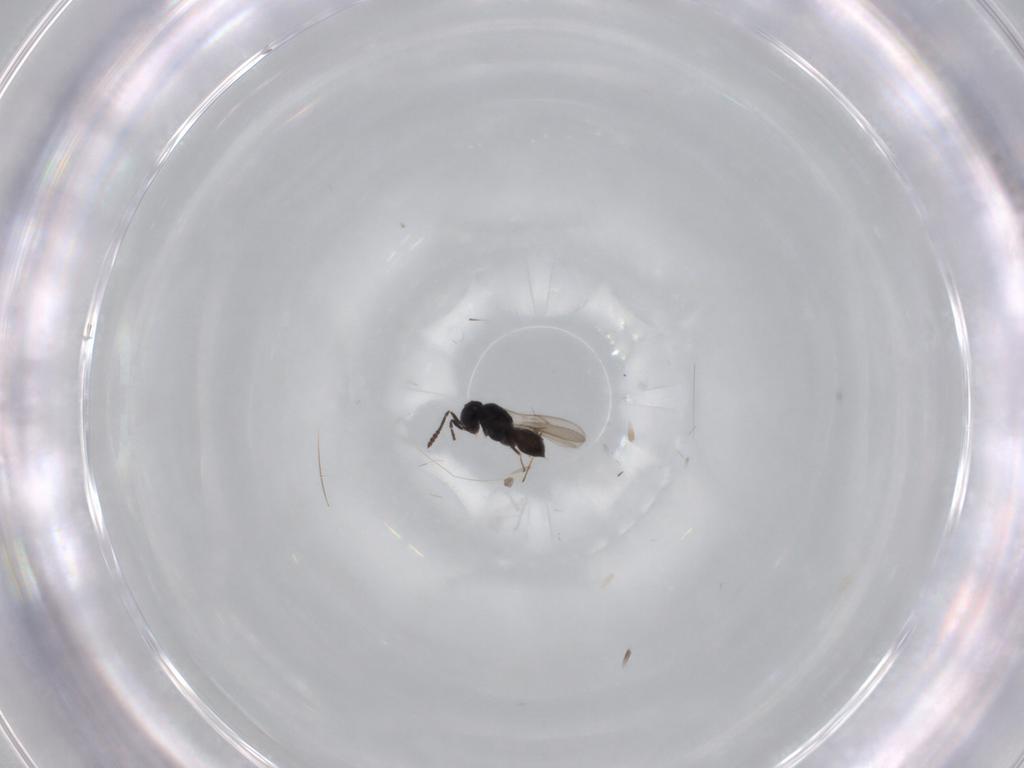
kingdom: Animalia
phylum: Arthropoda
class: Insecta
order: Hymenoptera
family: Scelionidae
